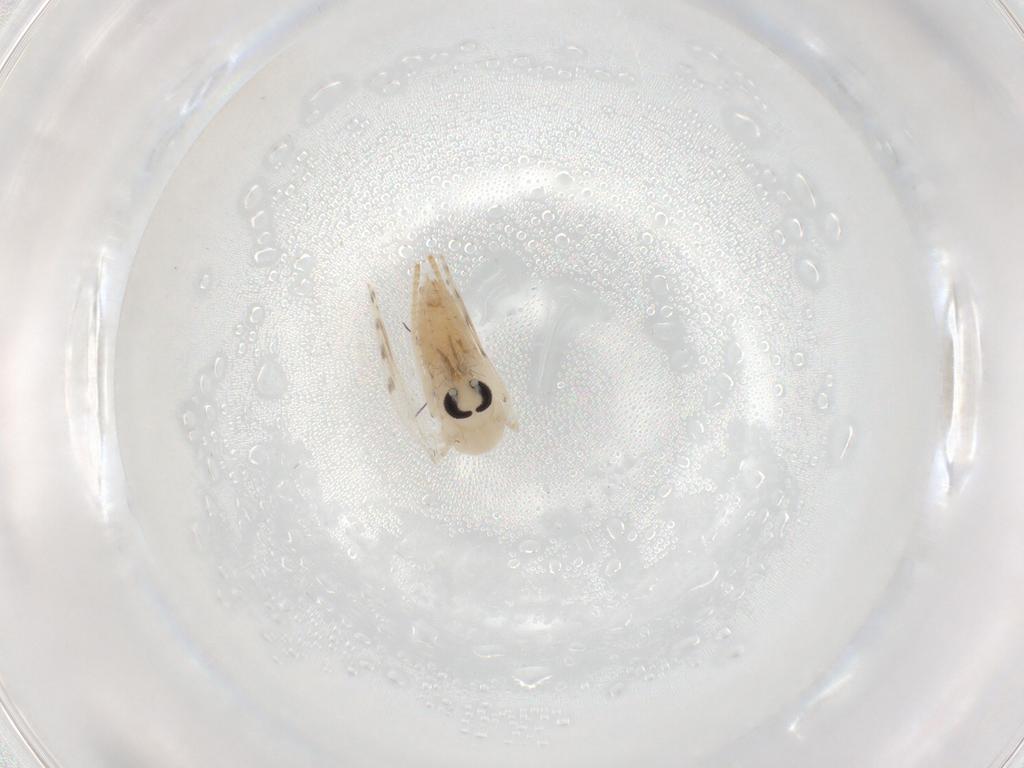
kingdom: Animalia
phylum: Arthropoda
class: Insecta
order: Diptera
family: Psychodidae
